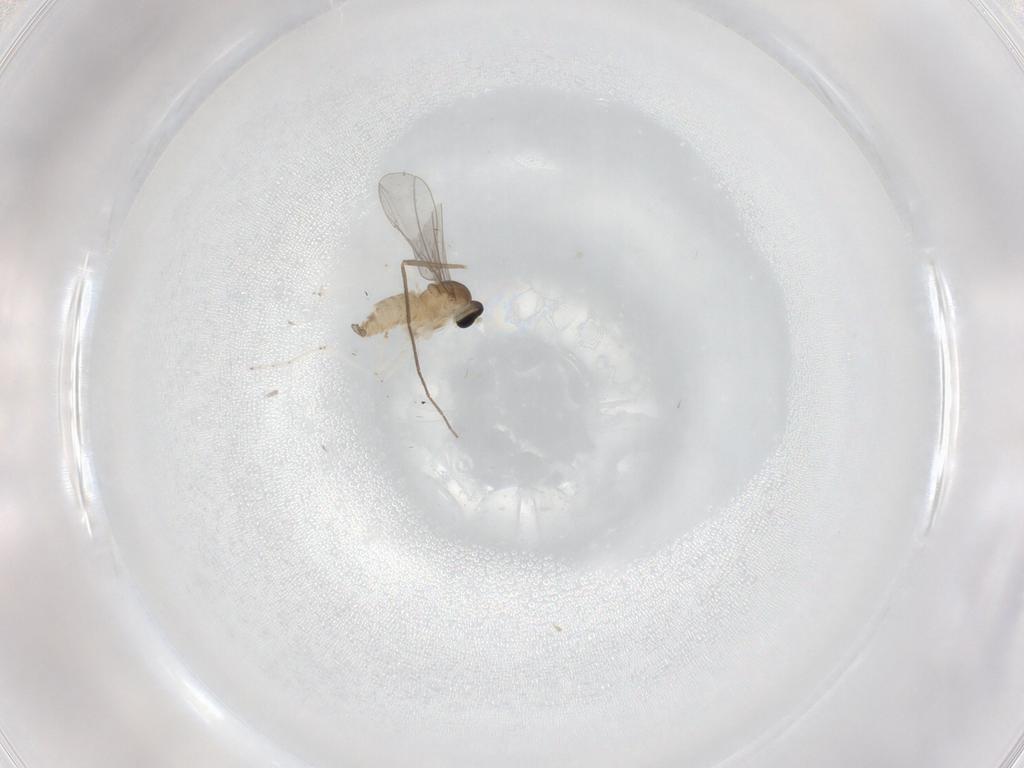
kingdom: Animalia
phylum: Arthropoda
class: Insecta
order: Diptera
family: Cecidomyiidae
